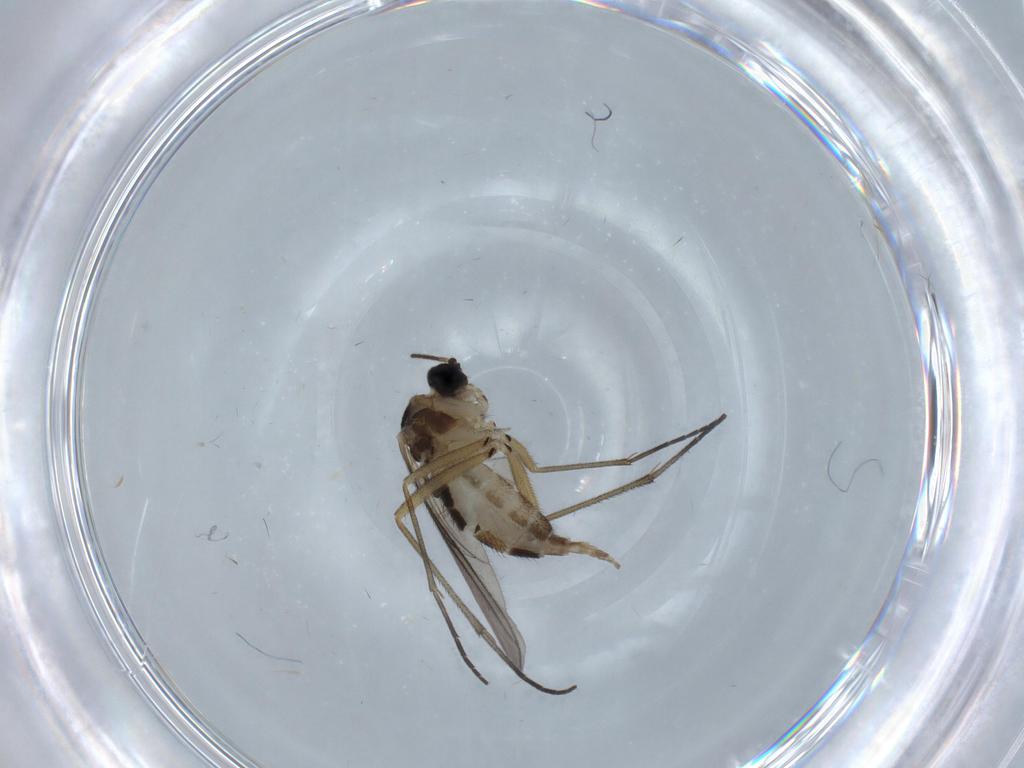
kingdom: Animalia
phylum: Arthropoda
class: Insecta
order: Diptera
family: Sciaridae
